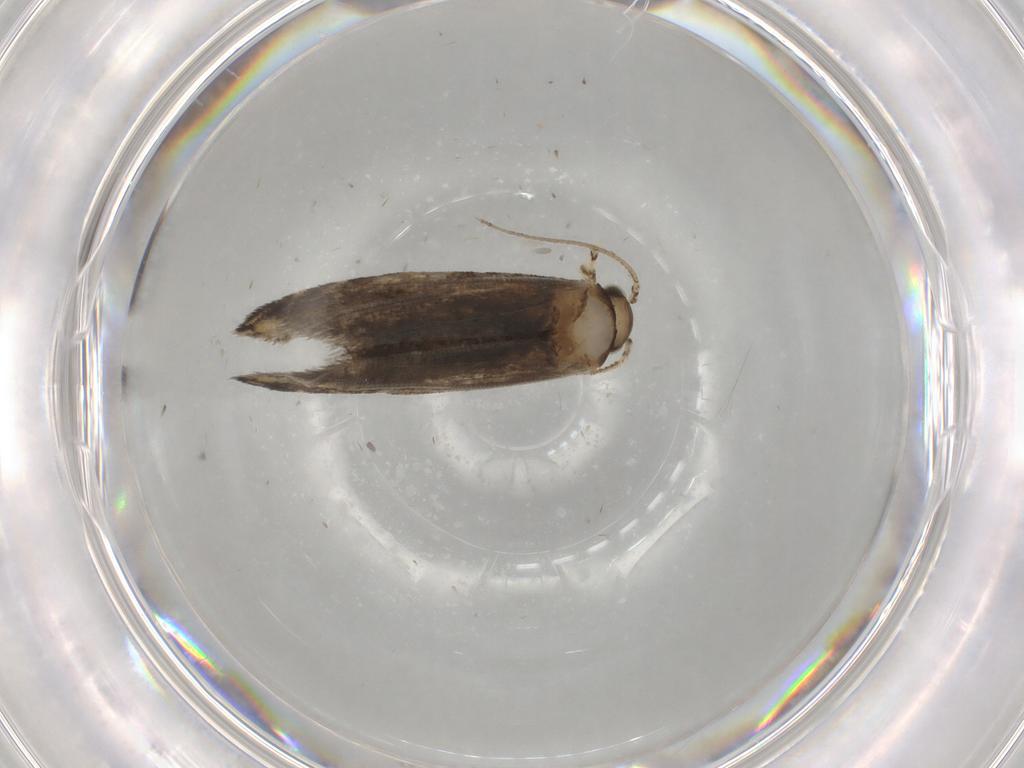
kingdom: Animalia
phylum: Arthropoda
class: Insecta
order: Lepidoptera
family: Tineidae
